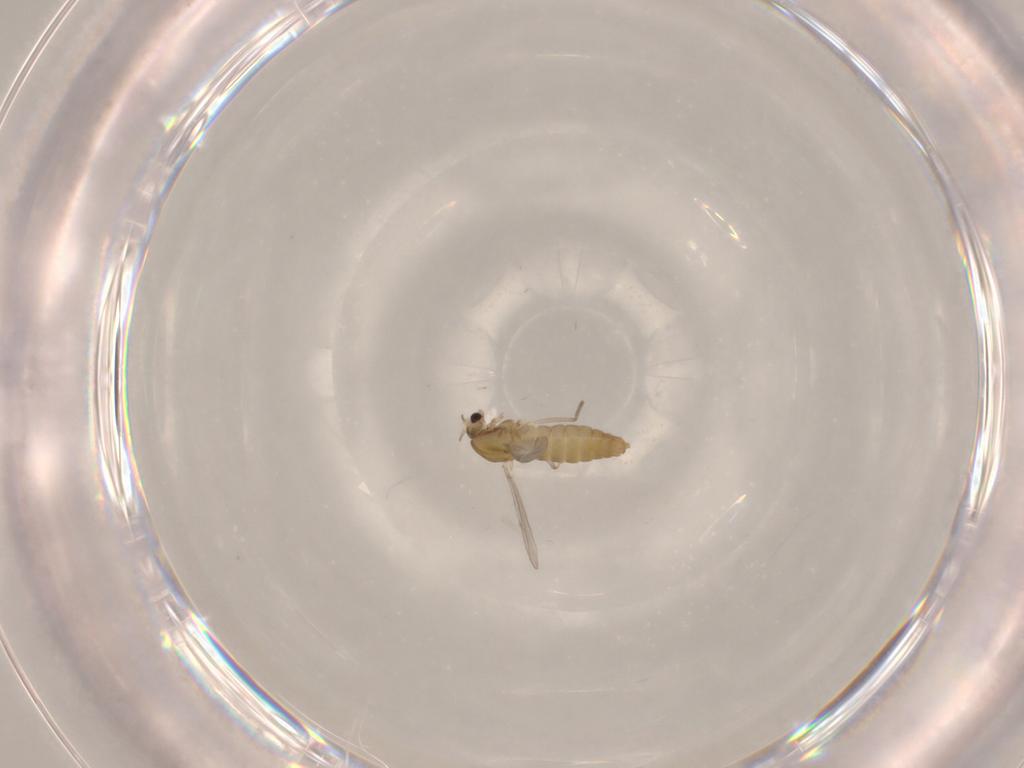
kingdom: Animalia
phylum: Arthropoda
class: Insecta
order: Diptera
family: Chironomidae
